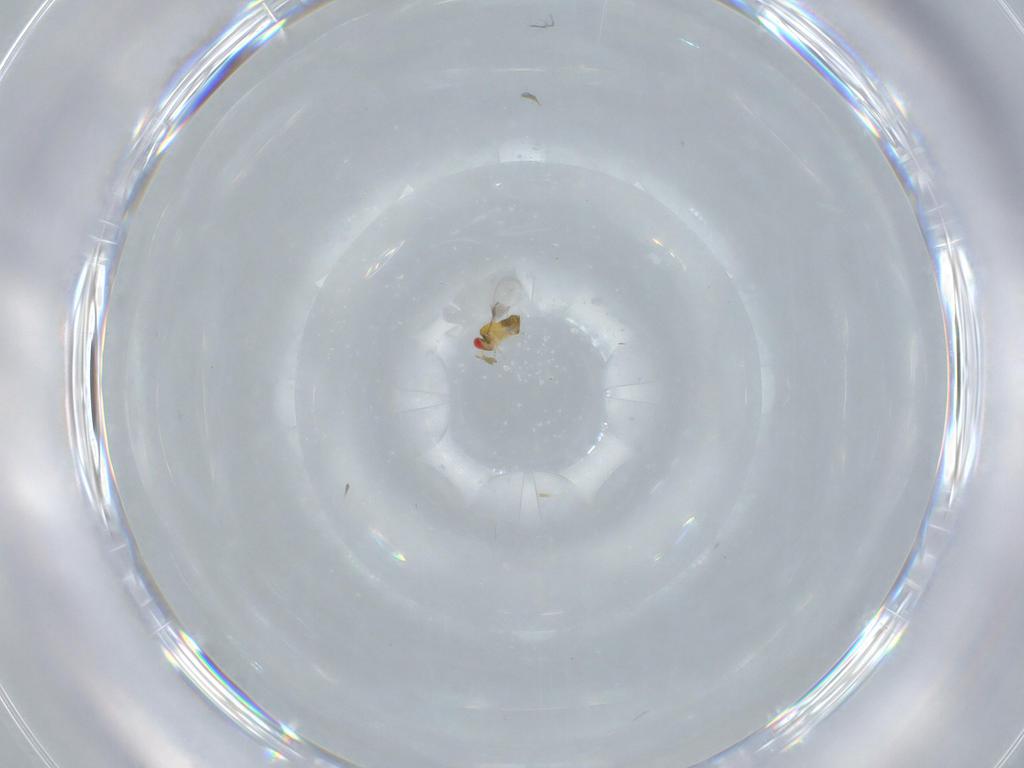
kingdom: Animalia
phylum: Arthropoda
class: Insecta
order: Hymenoptera
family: Trichogrammatidae
